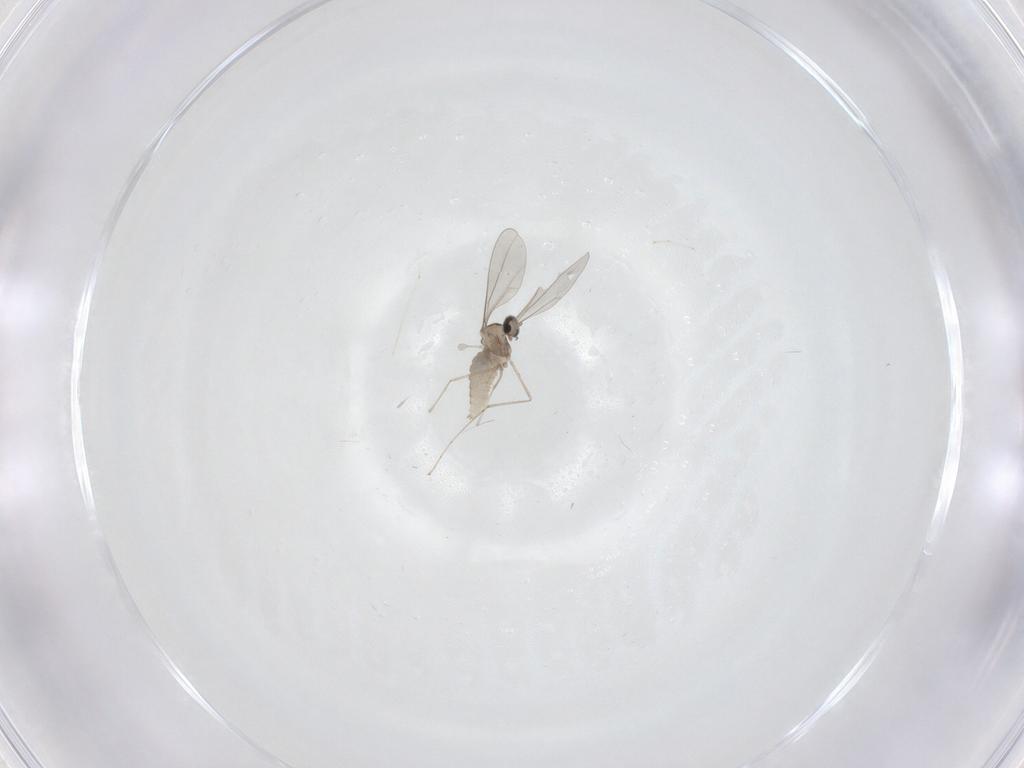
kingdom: Animalia
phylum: Arthropoda
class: Insecta
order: Diptera
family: Cecidomyiidae
